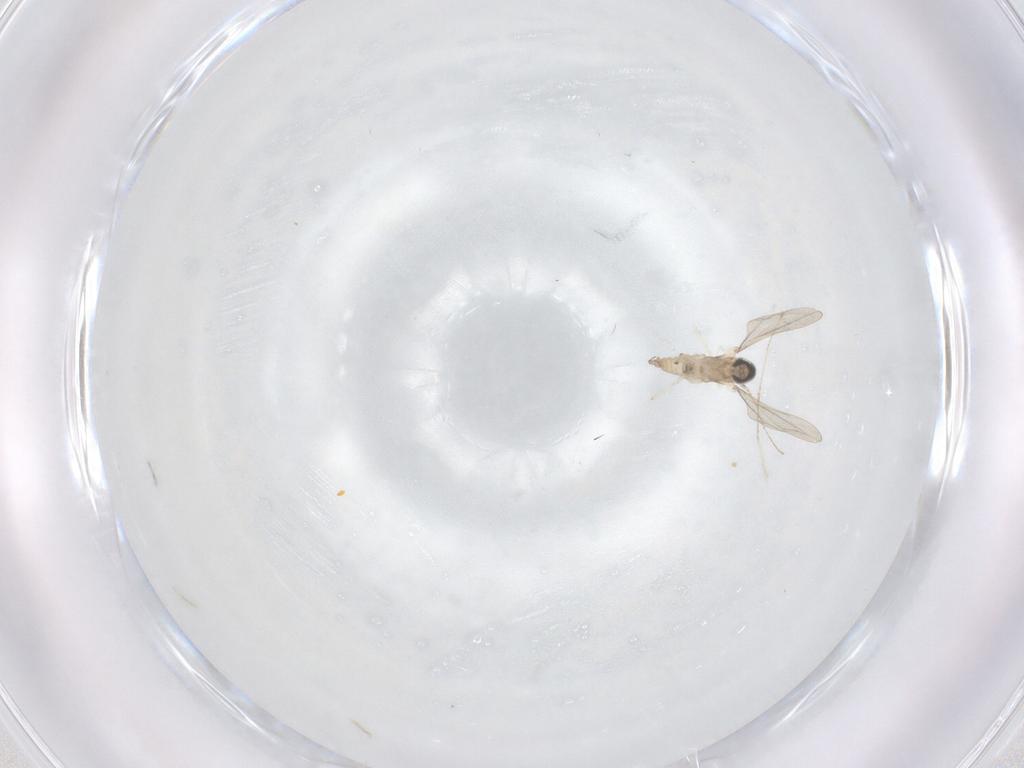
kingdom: Animalia
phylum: Arthropoda
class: Insecta
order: Diptera
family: Cecidomyiidae
